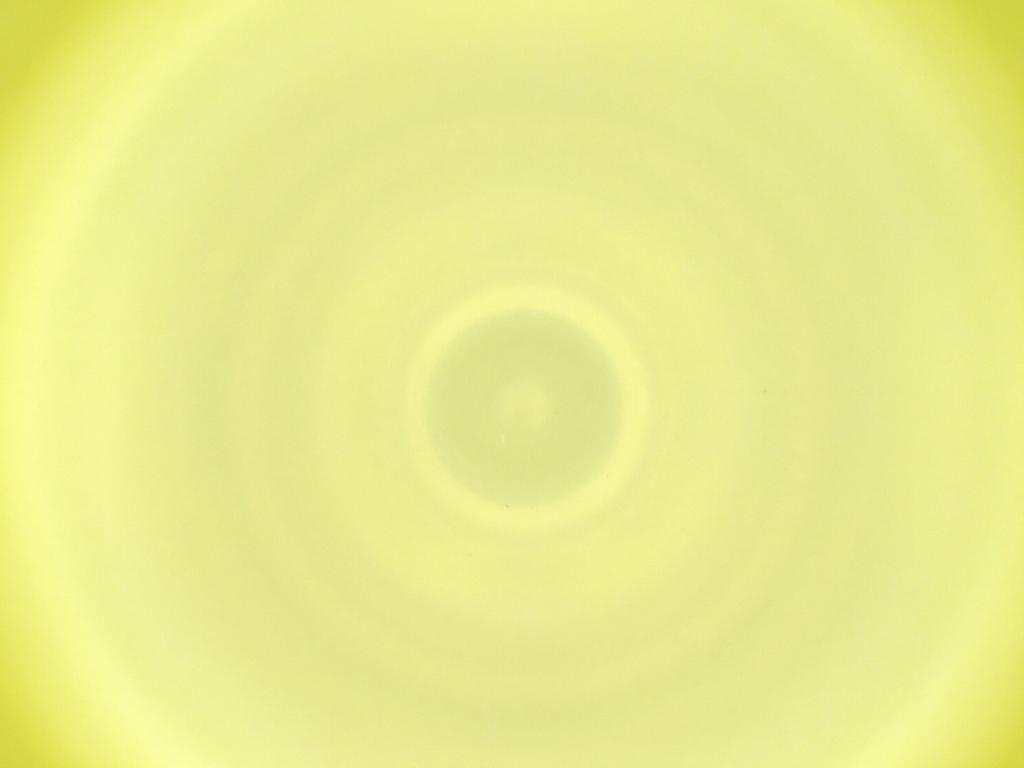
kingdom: Animalia
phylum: Arthropoda
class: Insecta
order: Diptera
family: Cecidomyiidae
